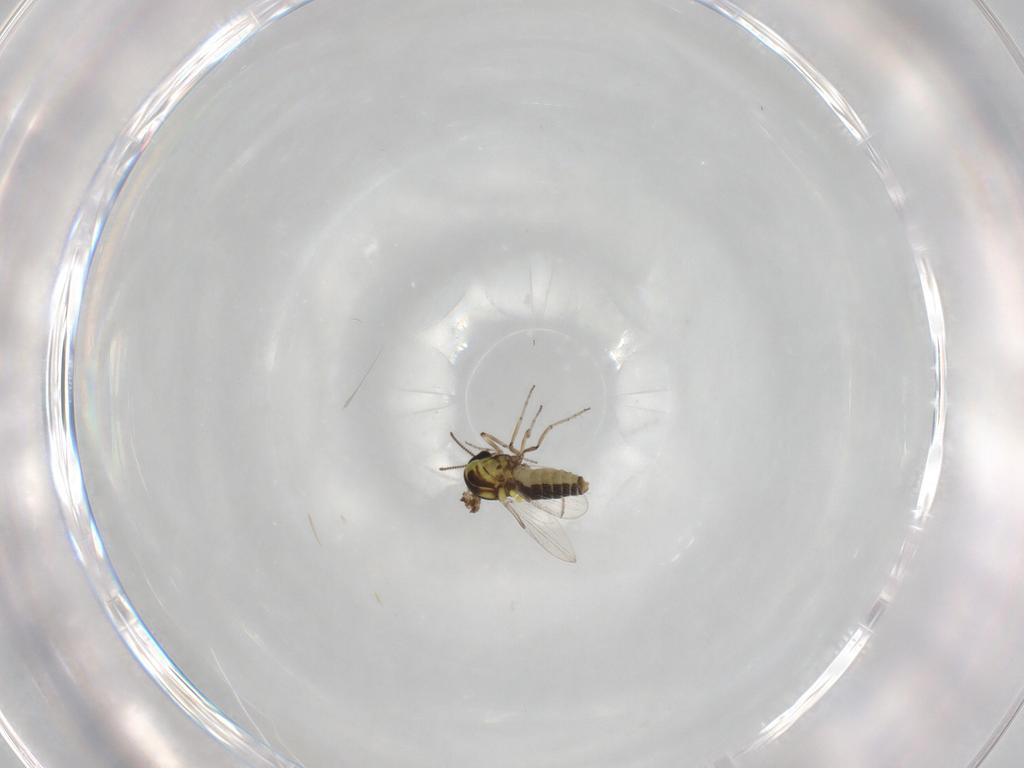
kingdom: Animalia
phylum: Arthropoda
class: Insecta
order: Diptera
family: Ceratopogonidae
